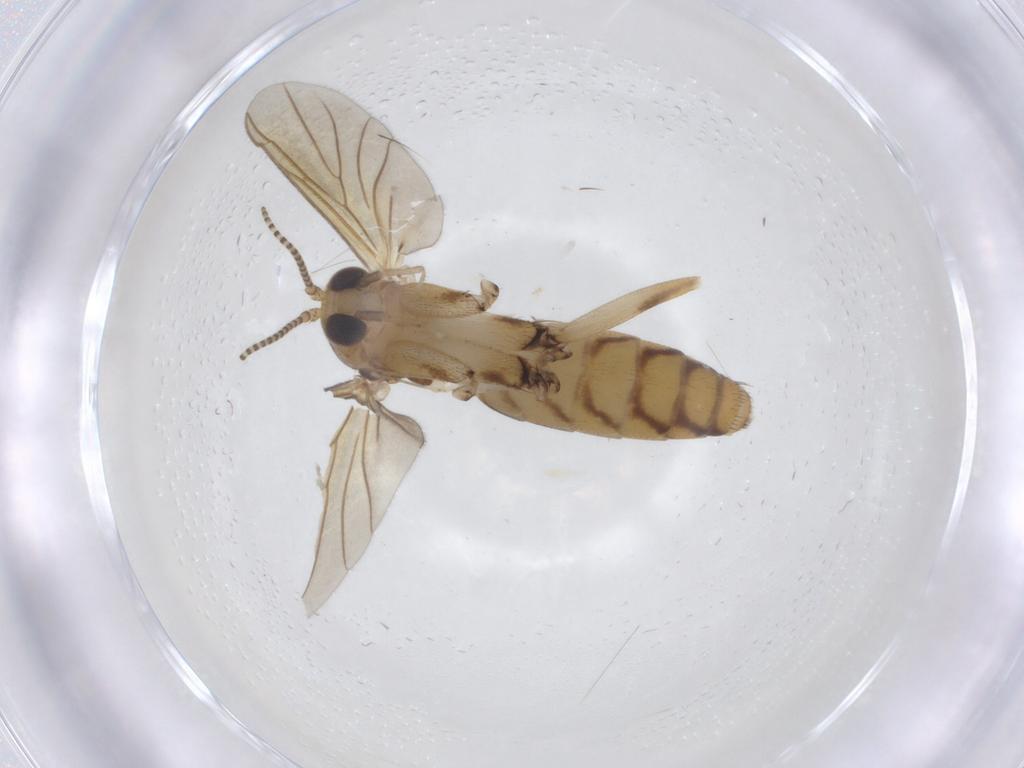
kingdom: Animalia
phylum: Arthropoda
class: Insecta
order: Diptera
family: Mycetophilidae
